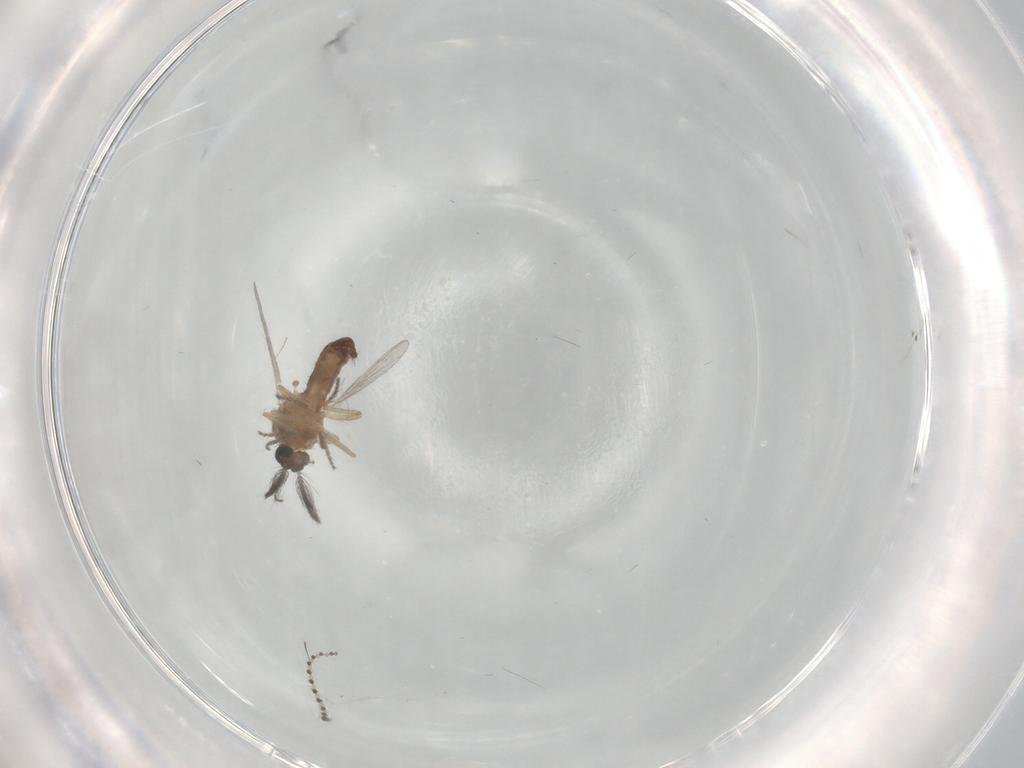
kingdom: Animalia
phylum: Arthropoda
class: Insecta
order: Diptera
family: Ceratopogonidae
